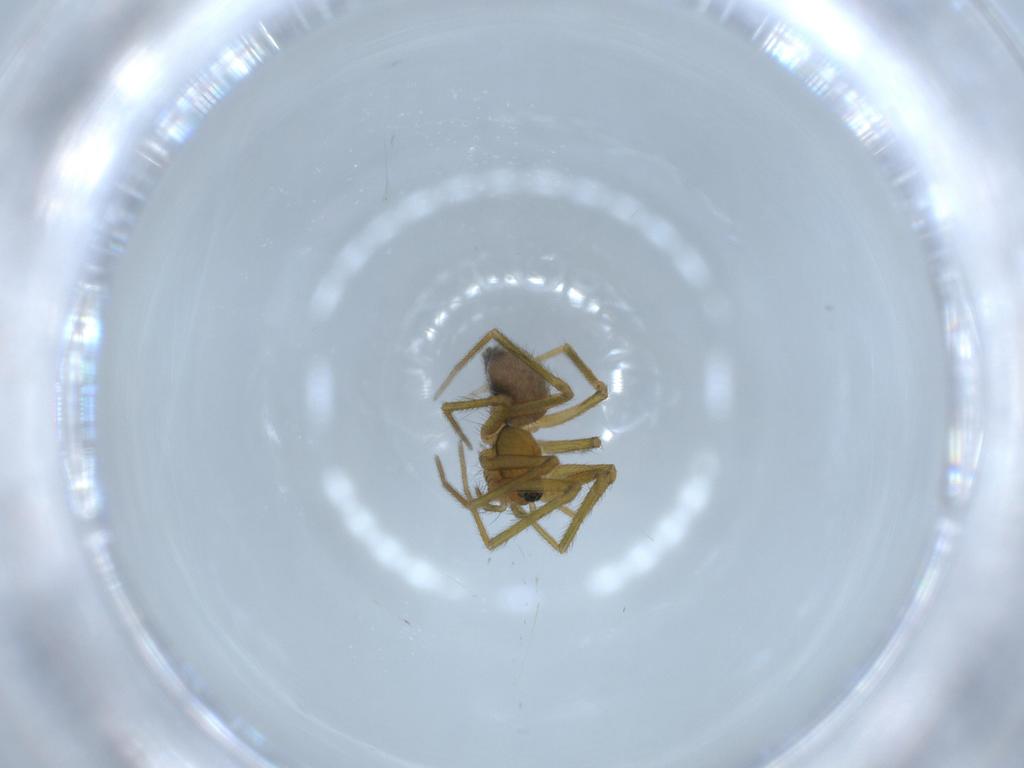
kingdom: Animalia
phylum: Arthropoda
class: Arachnida
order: Araneae
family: Linyphiidae
